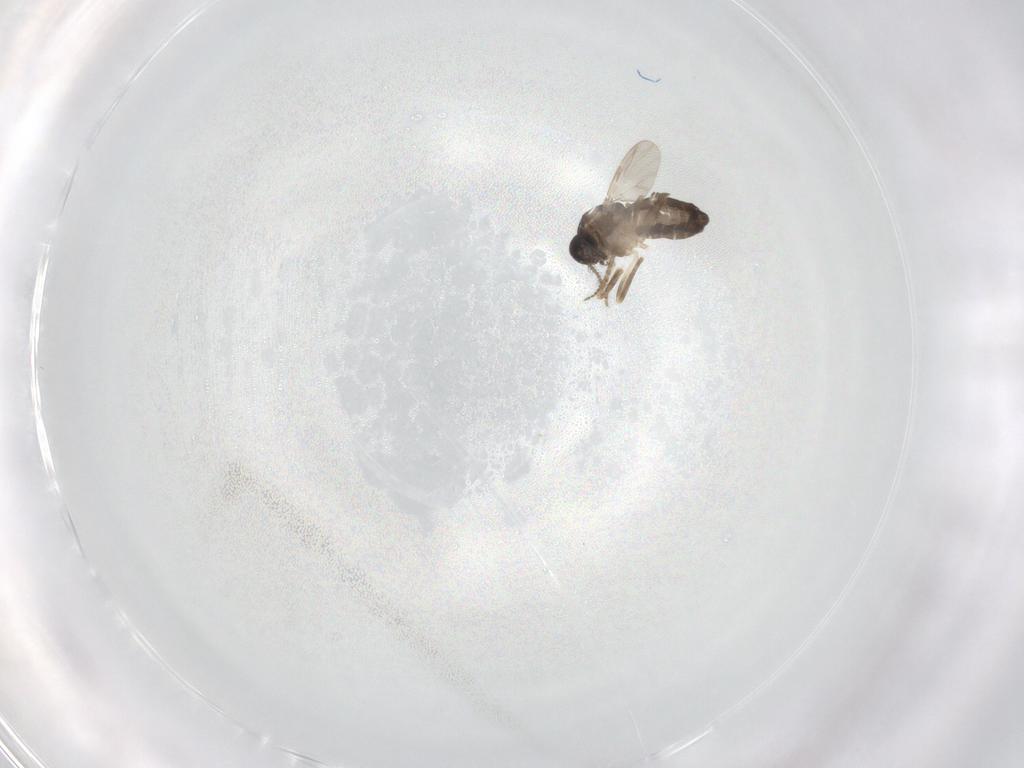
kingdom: Animalia
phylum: Arthropoda
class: Insecta
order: Diptera
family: Ceratopogonidae
